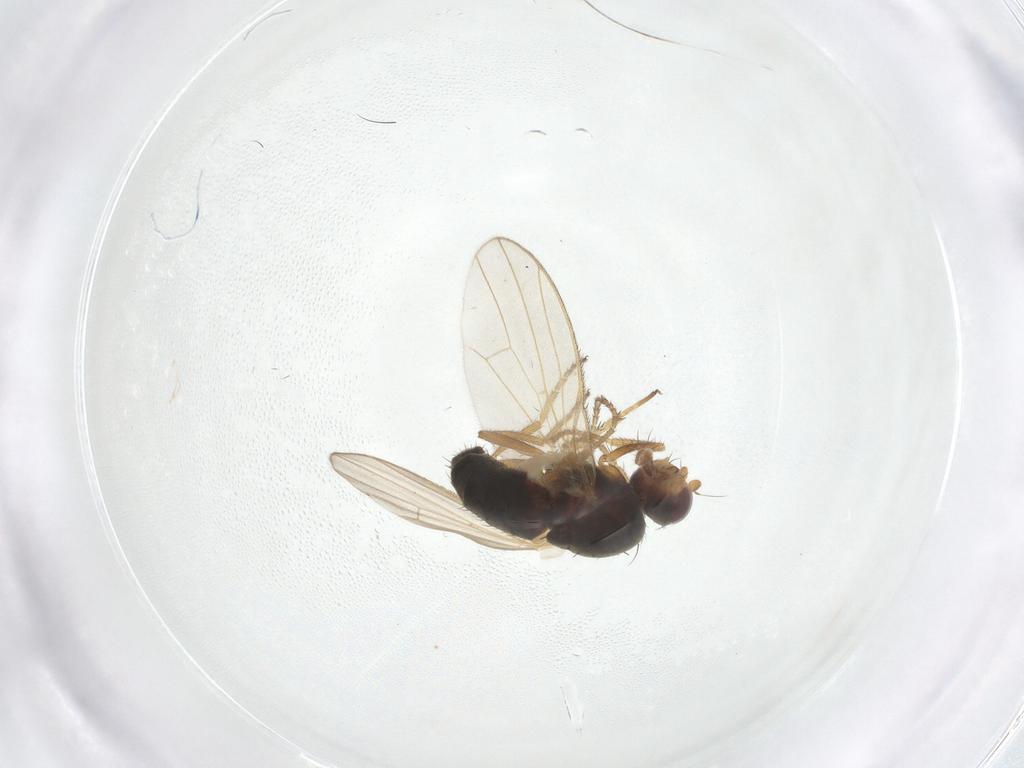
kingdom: Animalia
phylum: Arthropoda
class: Insecta
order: Diptera
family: Heleomyzidae
